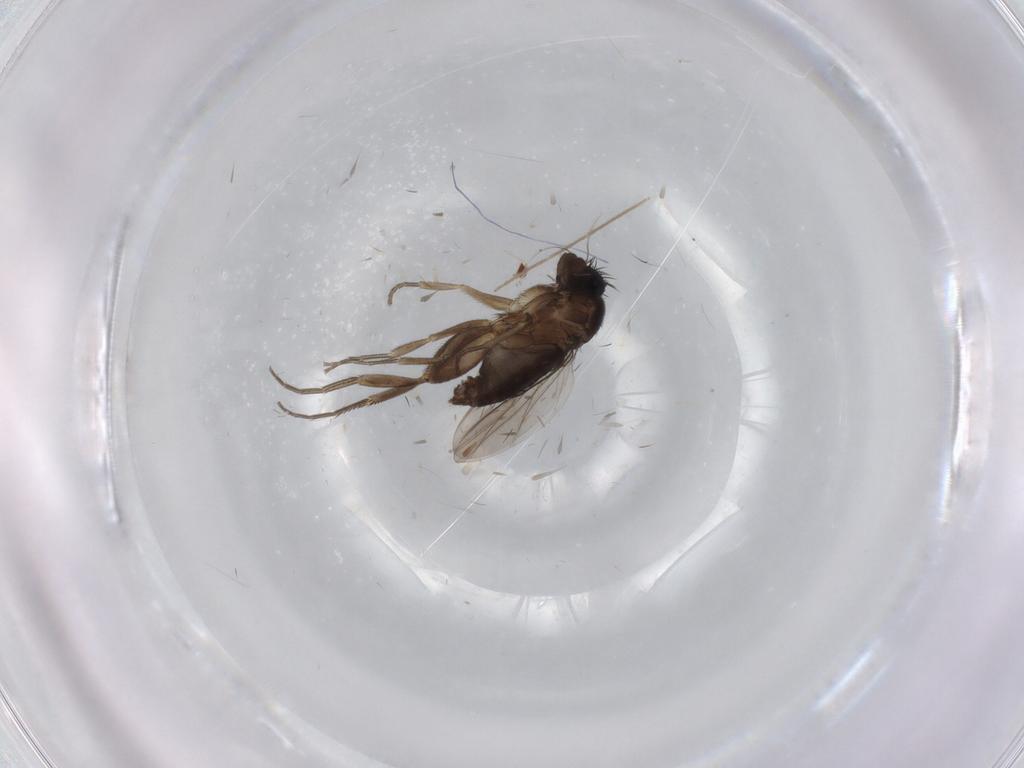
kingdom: Animalia
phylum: Arthropoda
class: Insecta
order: Diptera
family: Phoridae
